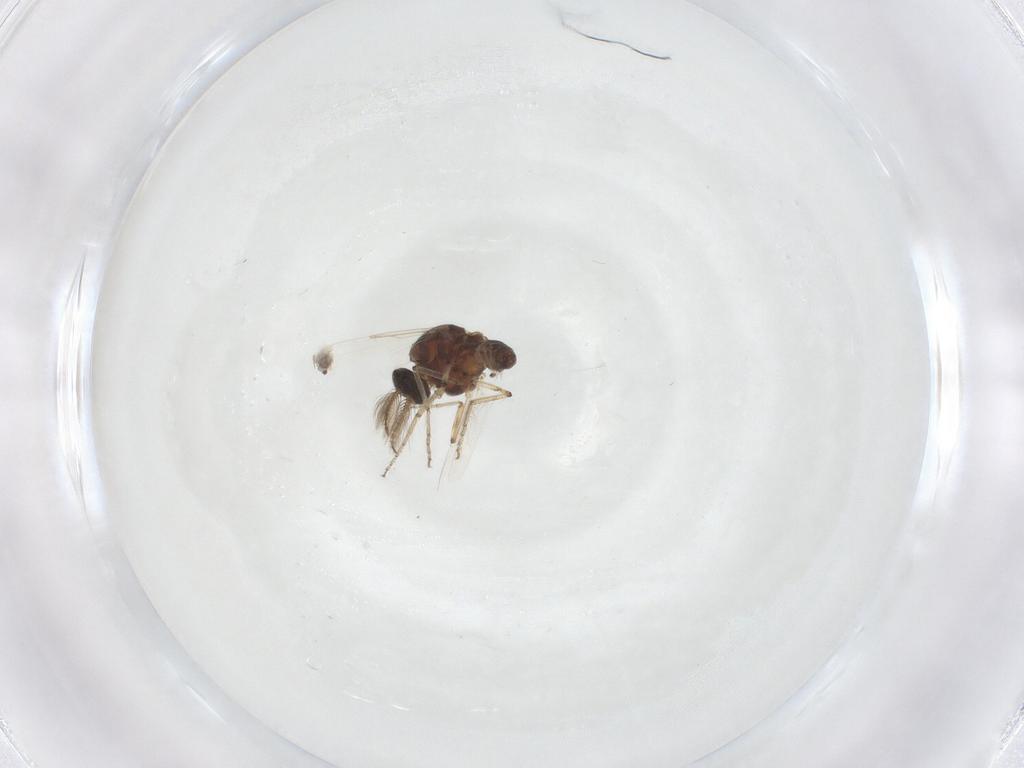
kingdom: Animalia
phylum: Arthropoda
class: Insecta
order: Diptera
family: Ceratopogonidae
